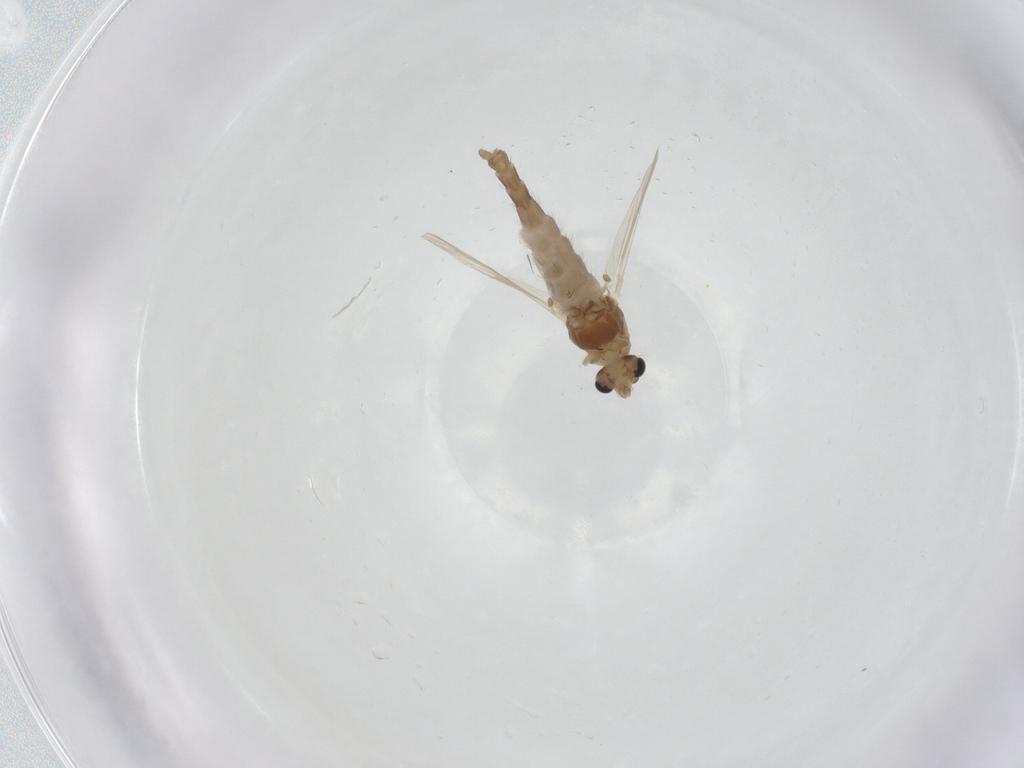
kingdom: Animalia
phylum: Arthropoda
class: Insecta
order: Diptera
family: Chironomidae
